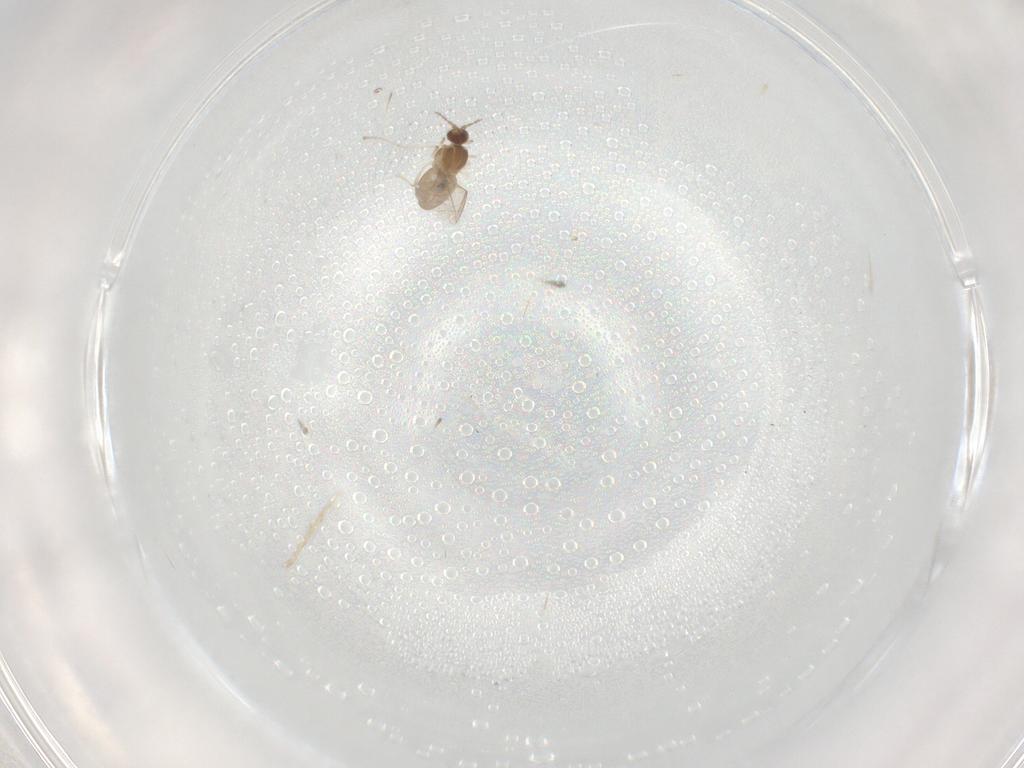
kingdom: Animalia
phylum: Arthropoda
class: Insecta
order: Diptera
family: Cecidomyiidae
